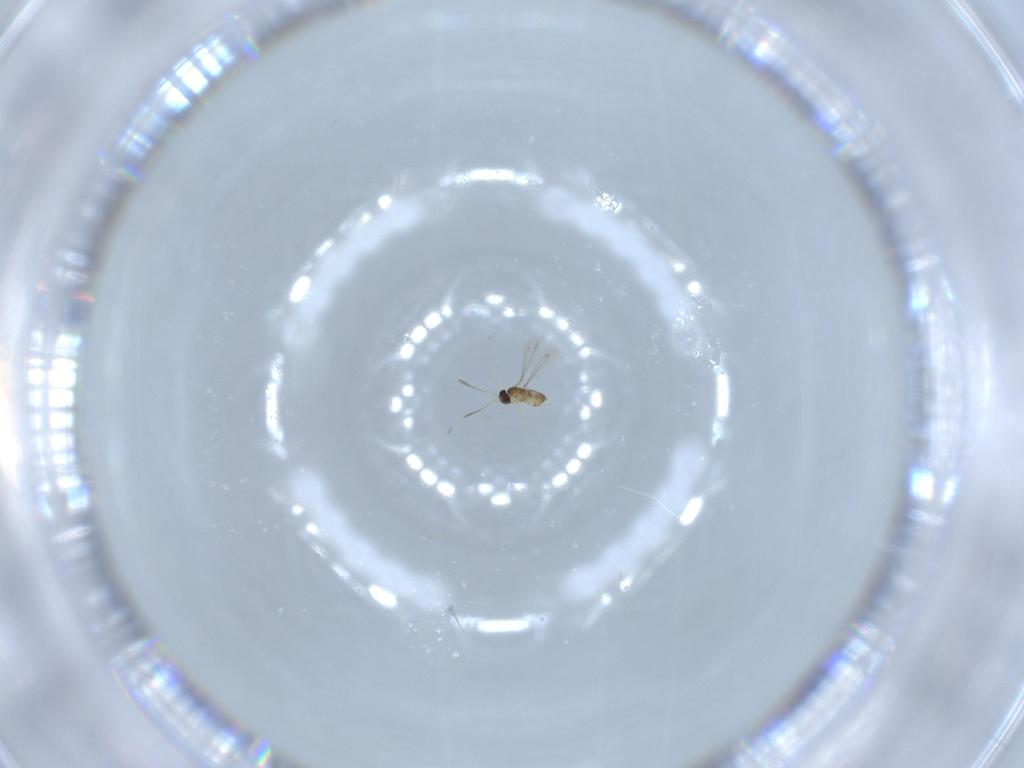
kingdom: Animalia
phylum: Arthropoda
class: Insecta
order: Hymenoptera
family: Mymaridae
